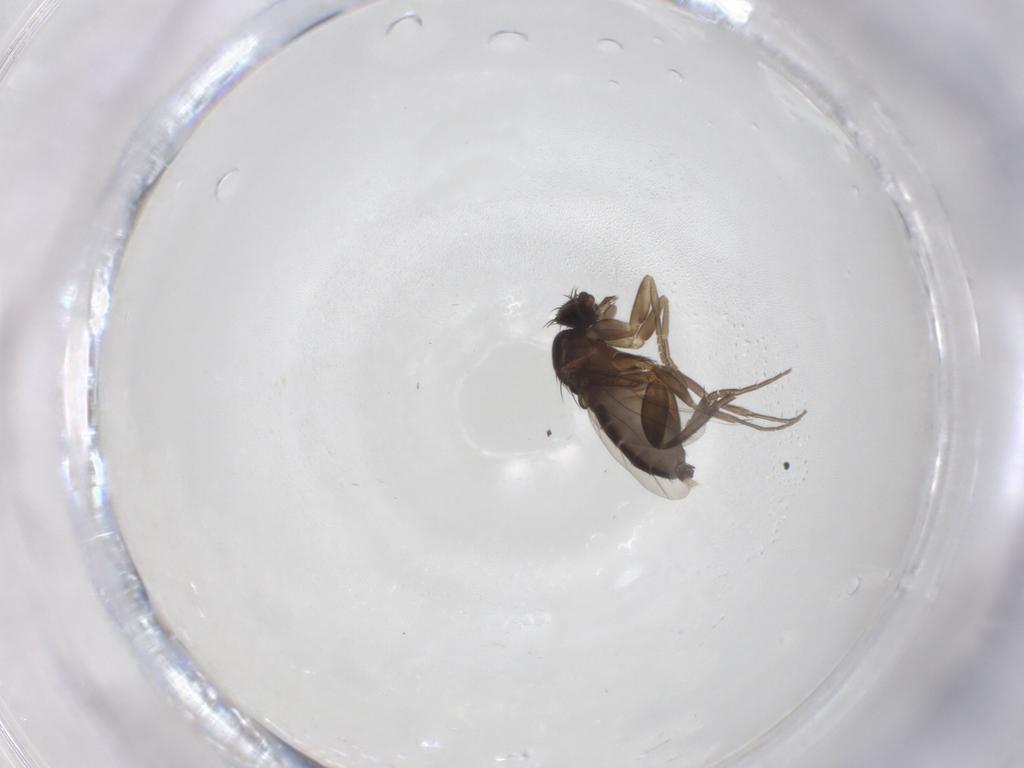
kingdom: Animalia
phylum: Arthropoda
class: Insecta
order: Diptera
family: Phoridae
